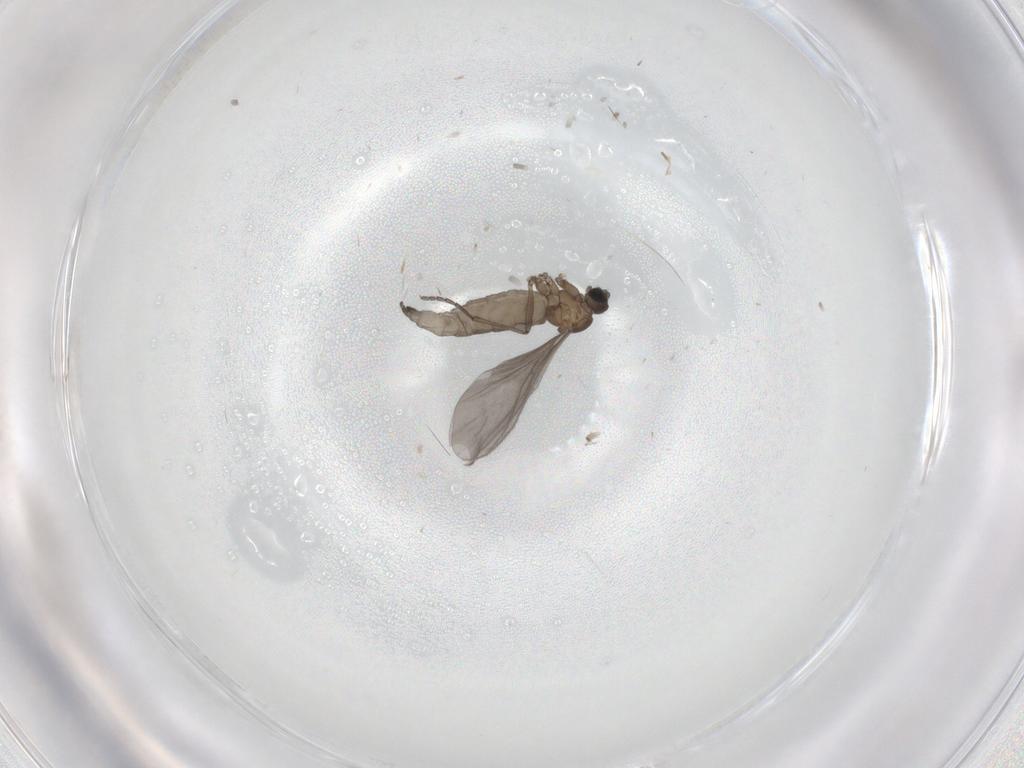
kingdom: Animalia
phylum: Arthropoda
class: Insecta
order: Diptera
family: Sciaridae
